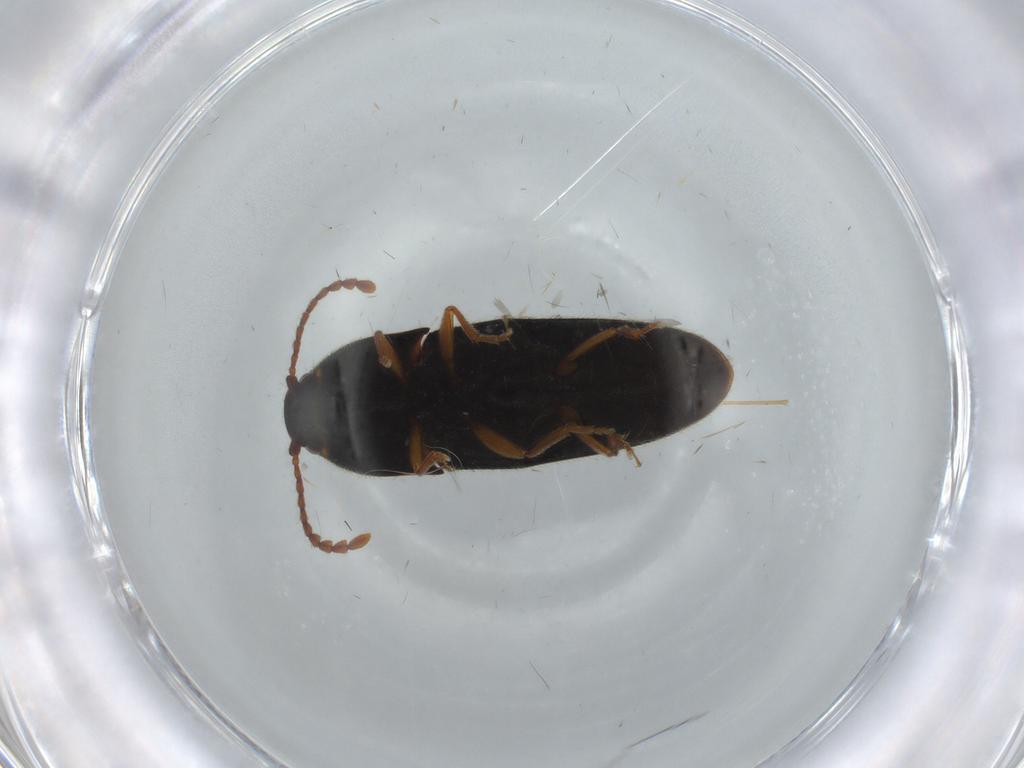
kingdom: Animalia
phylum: Arthropoda
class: Insecta
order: Coleoptera
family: Elateridae
